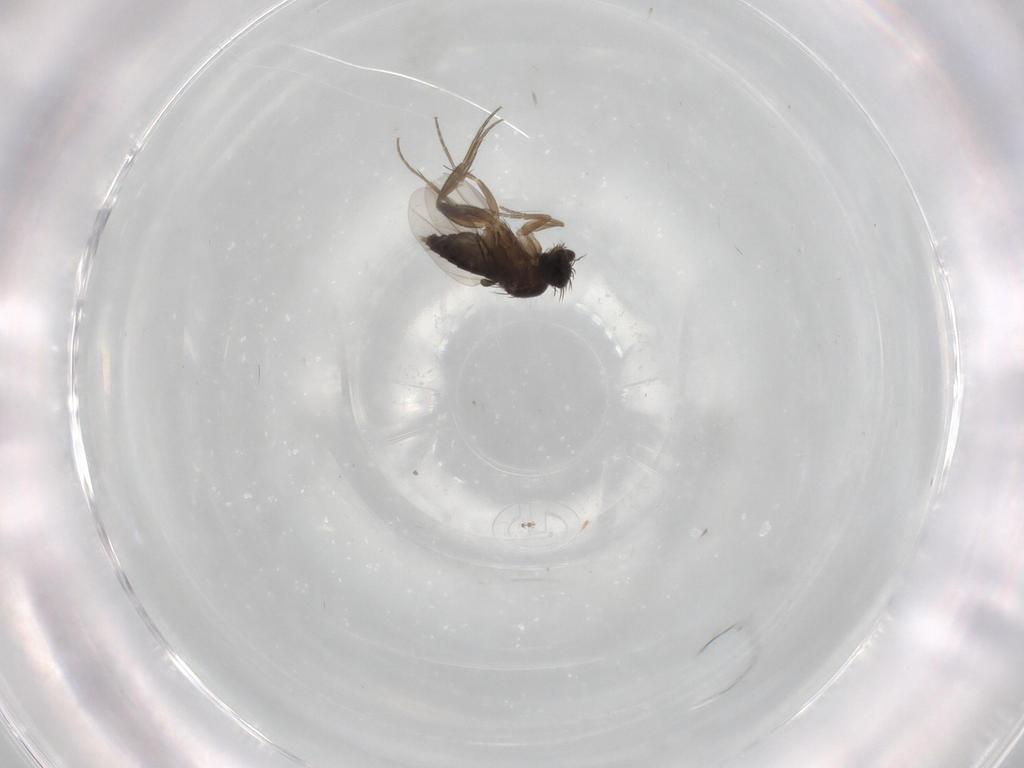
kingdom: Animalia
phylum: Arthropoda
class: Insecta
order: Diptera
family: Phoridae
